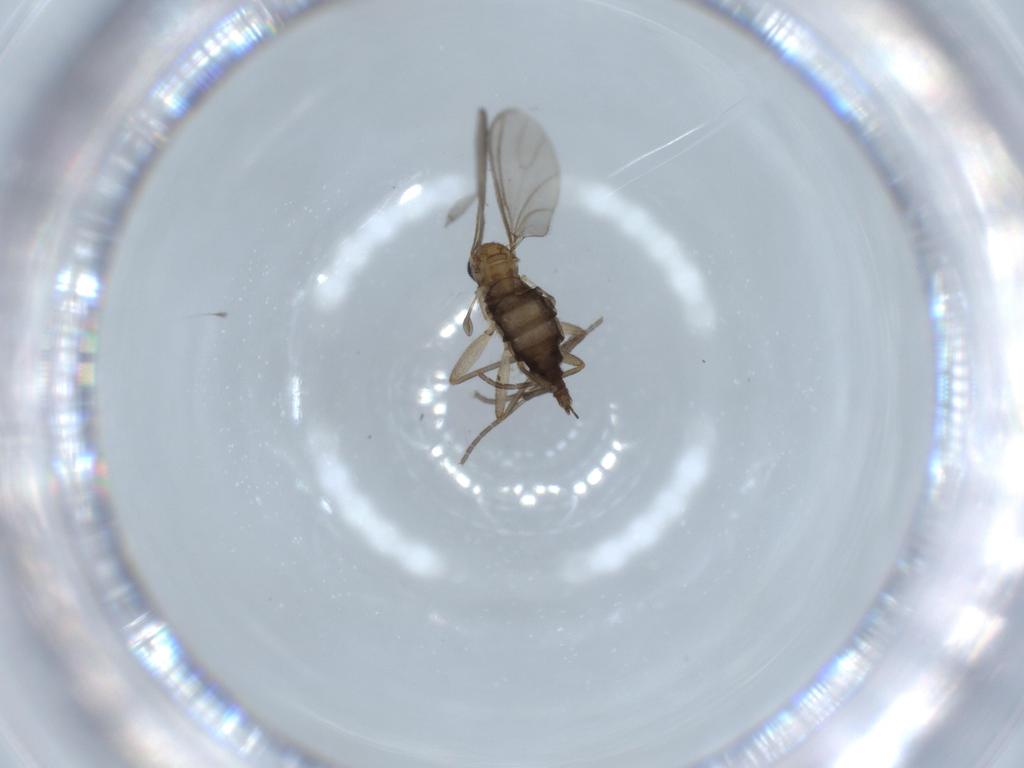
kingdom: Animalia
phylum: Arthropoda
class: Insecta
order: Diptera
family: Sciaridae
